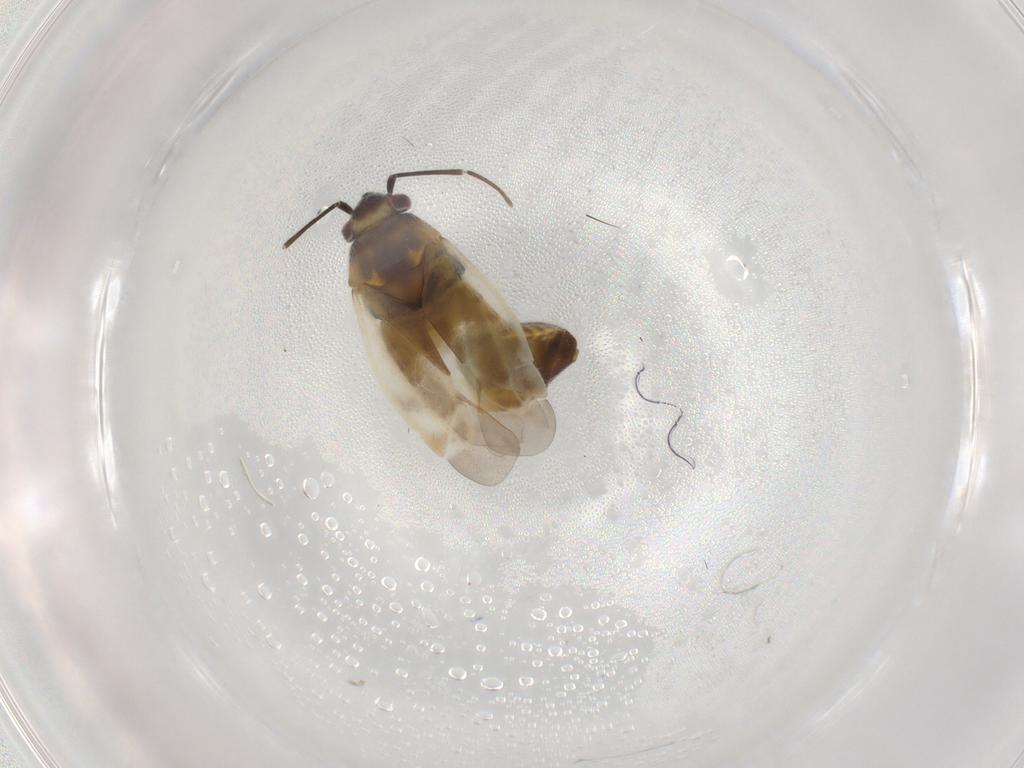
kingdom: Animalia
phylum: Arthropoda
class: Insecta
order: Hemiptera
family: Miridae
